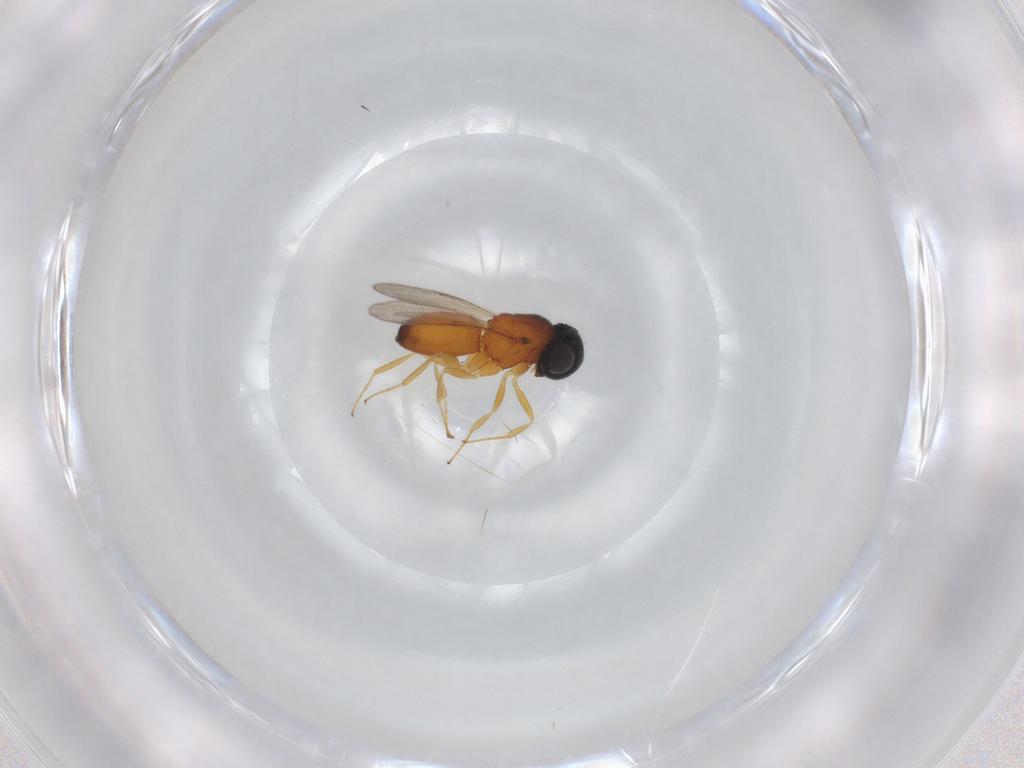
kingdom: Animalia
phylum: Arthropoda
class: Insecta
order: Hymenoptera
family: Scelionidae
